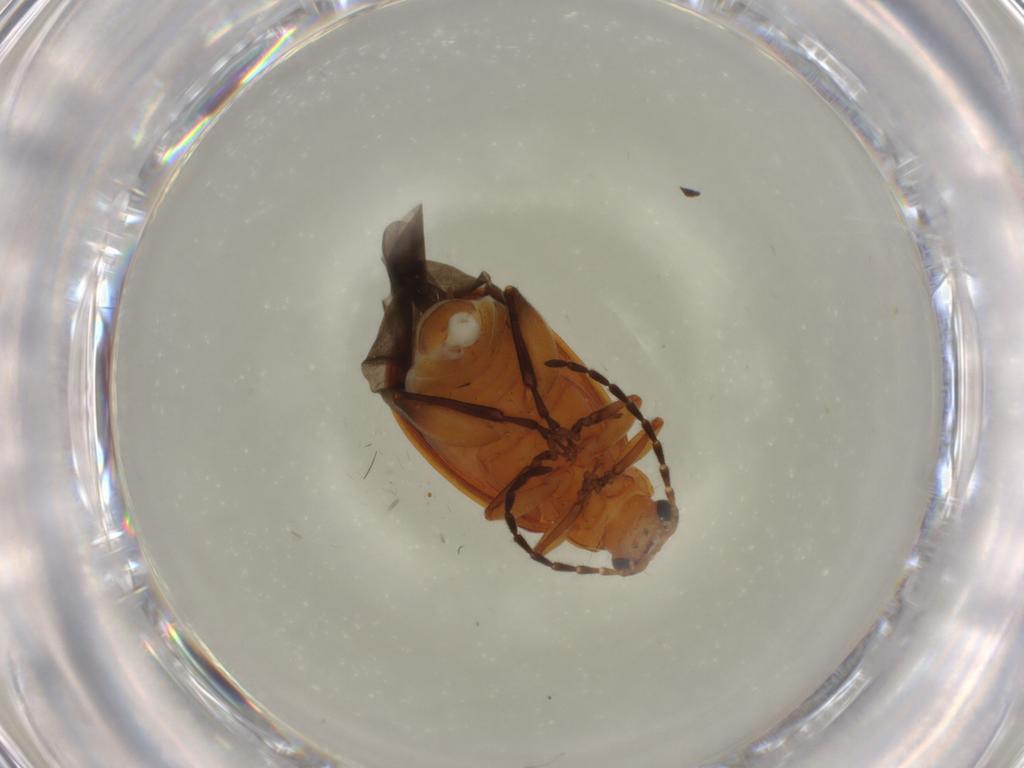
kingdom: Animalia
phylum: Arthropoda
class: Insecta
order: Coleoptera
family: Chrysomelidae
